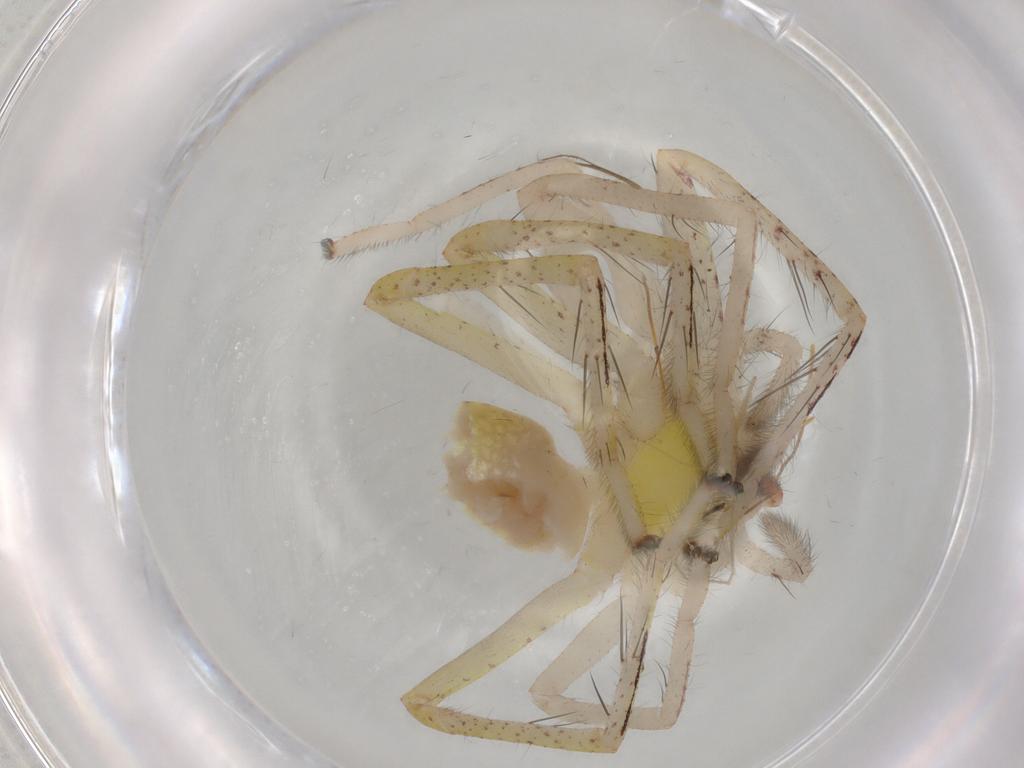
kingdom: Animalia
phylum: Arthropoda
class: Arachnida
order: Araneae
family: Sparassidae
